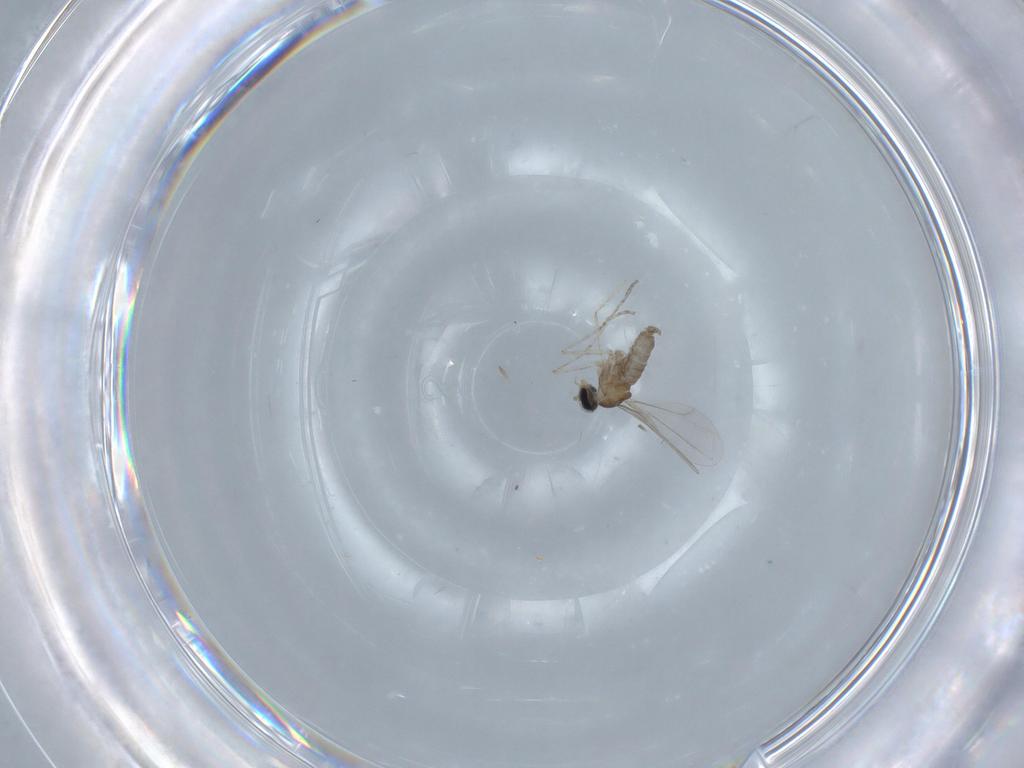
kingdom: Animalia
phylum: Arthropoda
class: Insecta
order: Diptera
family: Cecidomyiidae
